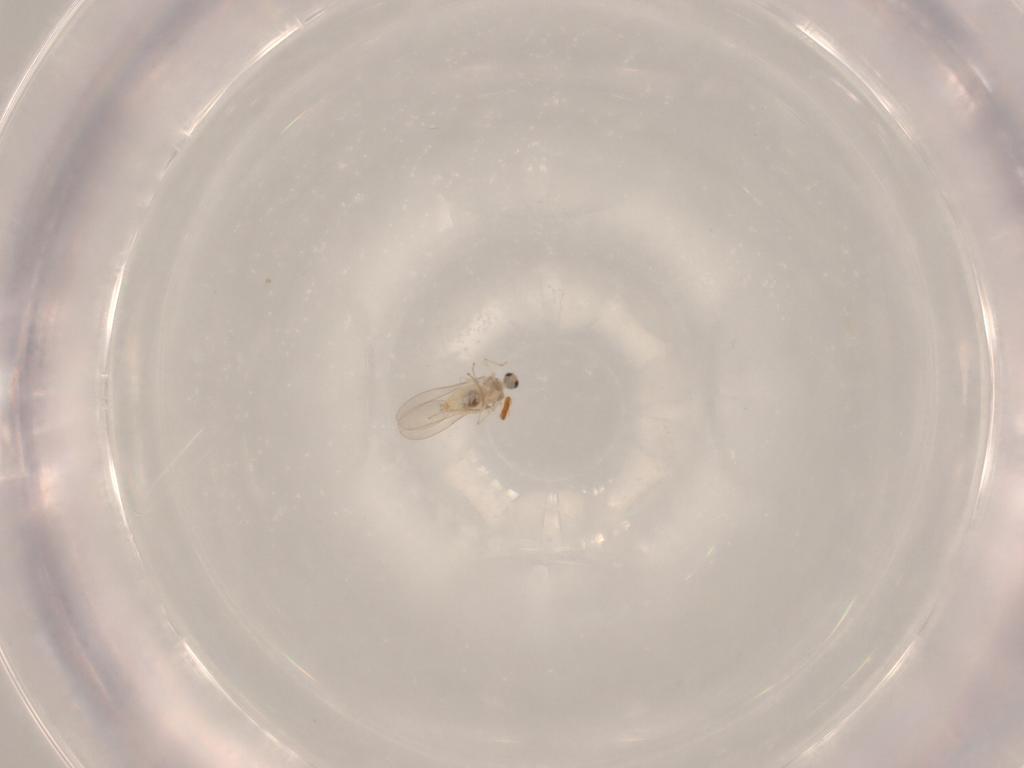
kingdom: Animalia
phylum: Arthropoda
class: Insecta
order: Diptera
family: Cecidomyiidae
